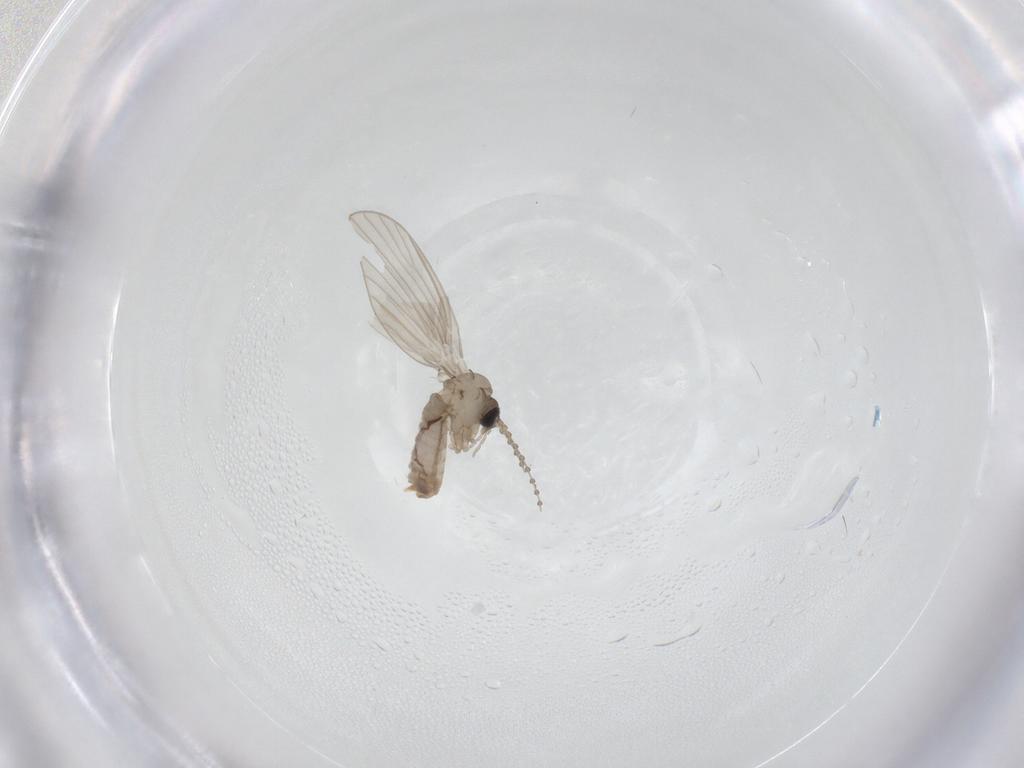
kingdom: Animalia
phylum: Arthropoda
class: Insecta
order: Diptera
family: Psychodidae
